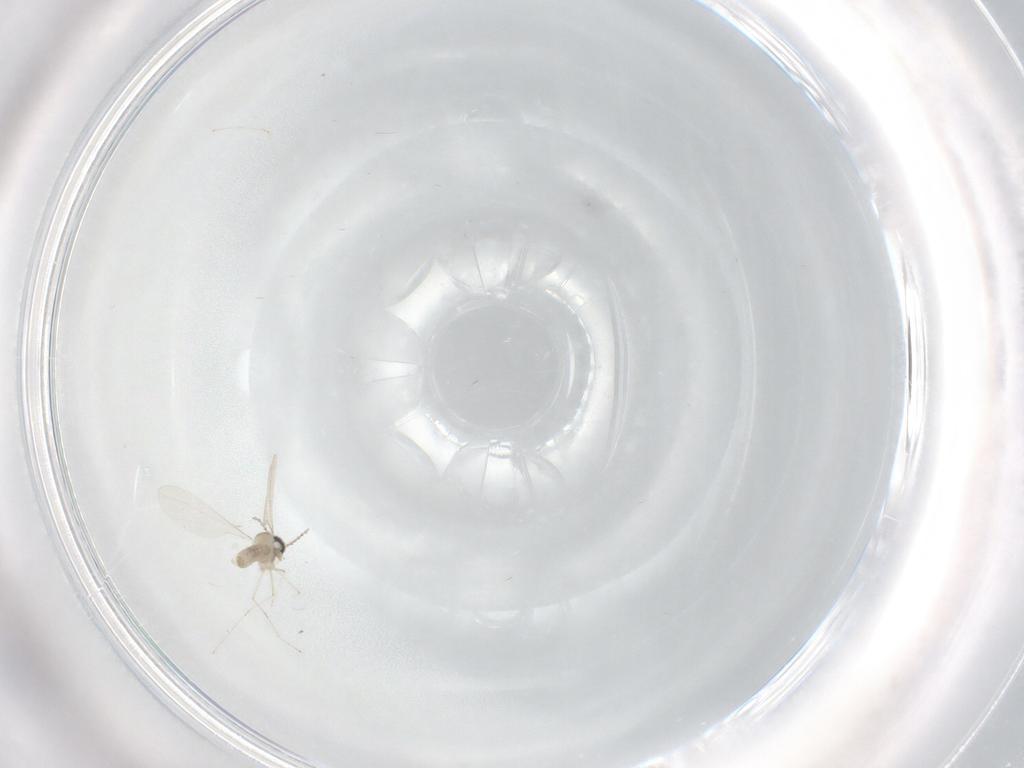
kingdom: Animalia
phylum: Arthropoda
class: Insecta
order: Diptera
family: Cecidomyiidae
